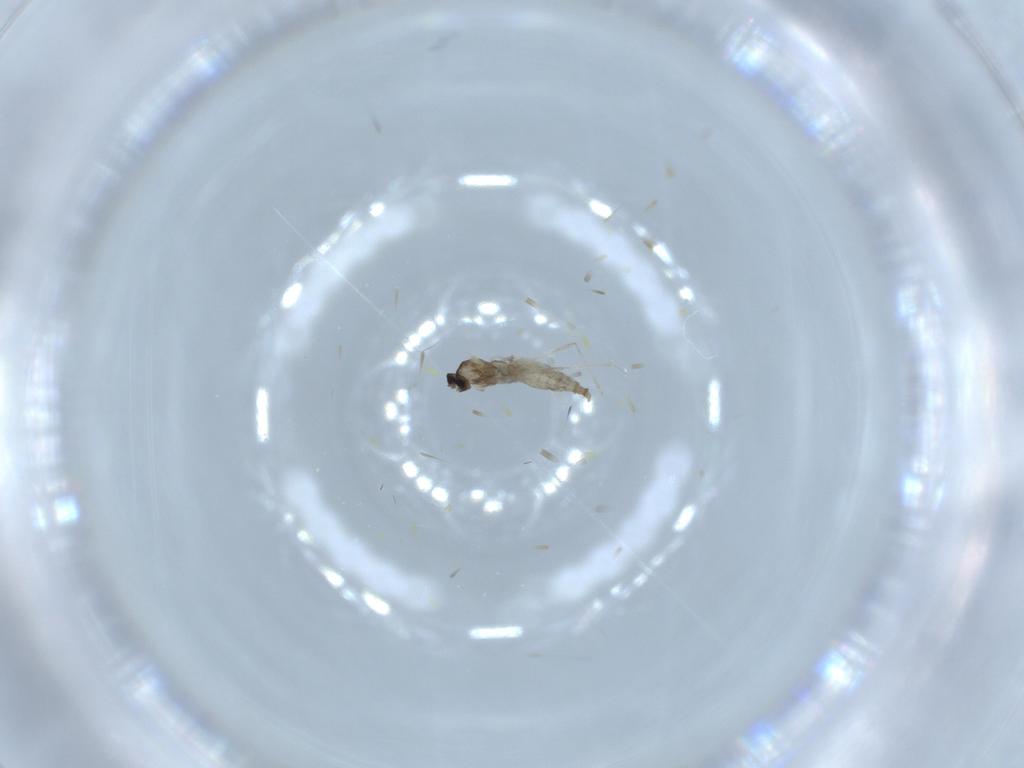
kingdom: Animalia
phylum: Arthropoda
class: Insecta
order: Diptera
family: Cecidomyiidae
